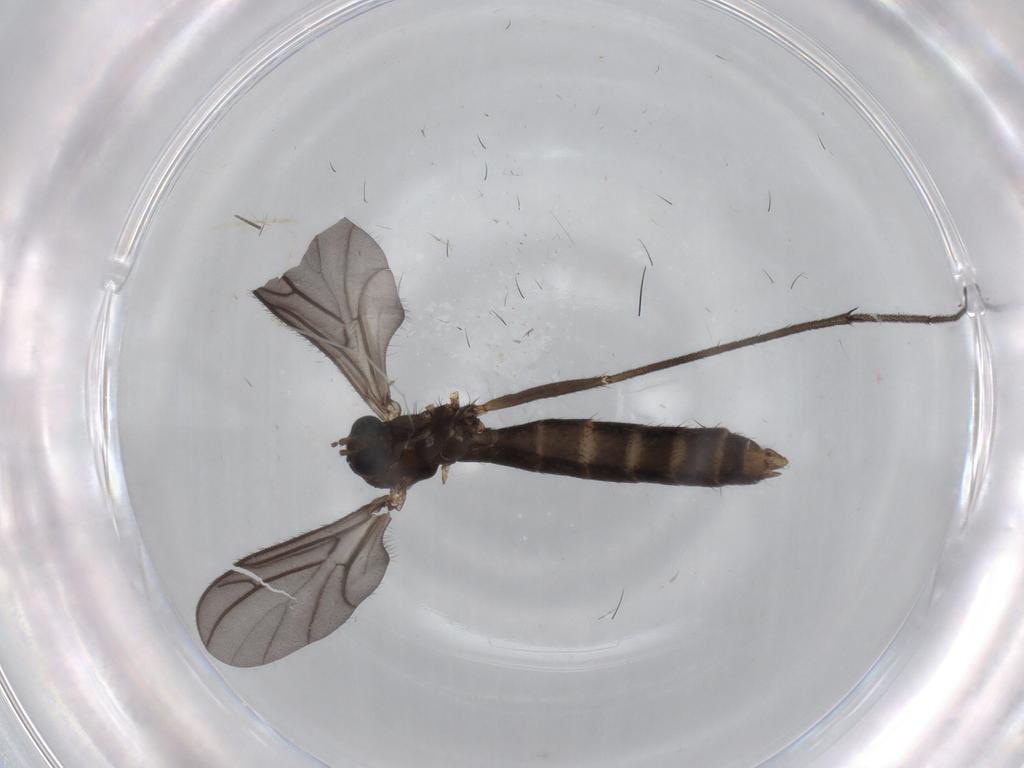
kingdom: Animalia
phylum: Arthropoda
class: Insecta
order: Diptera
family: Keroplatidae
